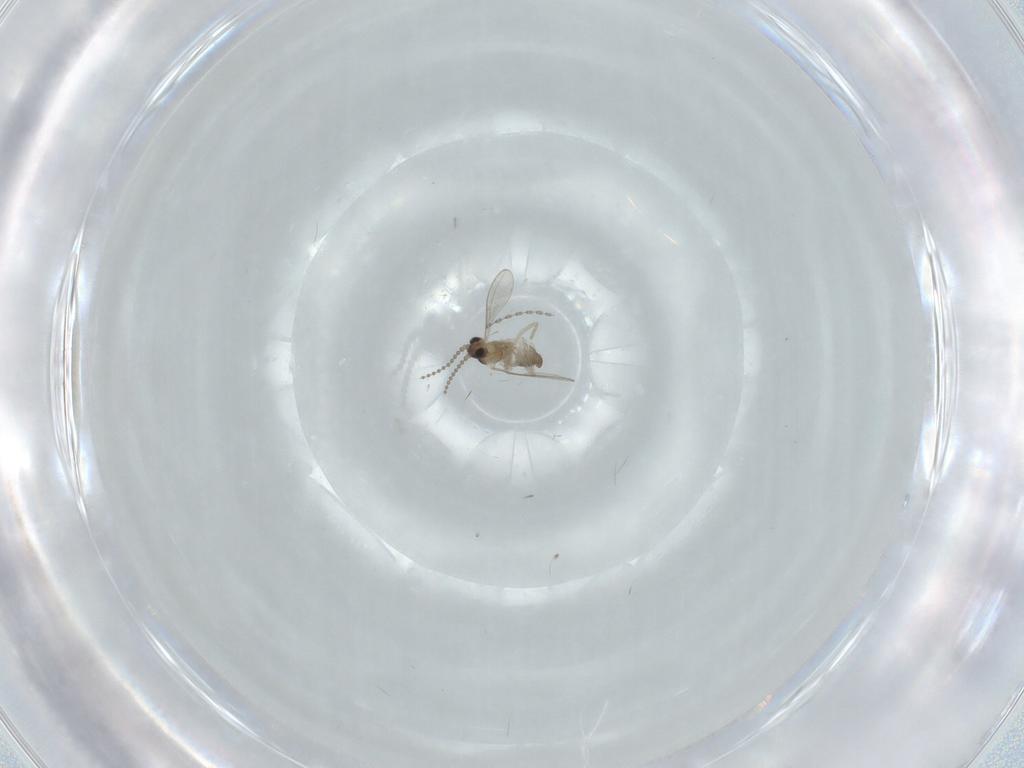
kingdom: Animalia
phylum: Arthropoda
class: Insecta
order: Diptera
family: Cecidomyiidae
